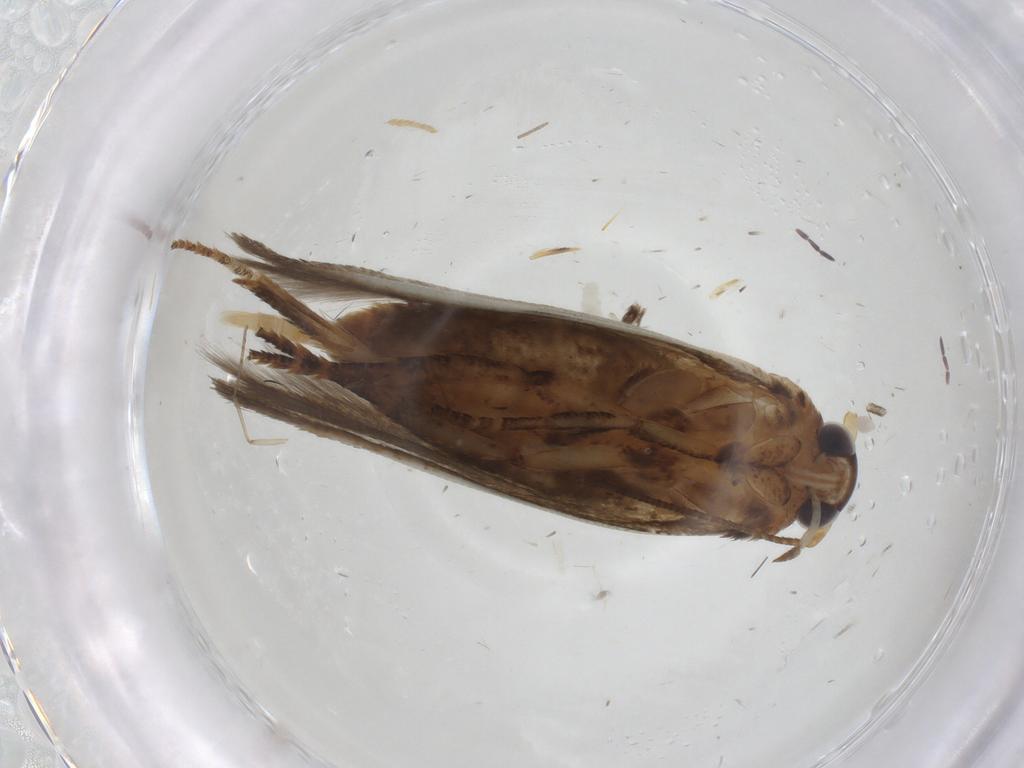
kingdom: Animalia
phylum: Arthropoda
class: Insecta
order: Lepidoptera
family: Blastobasidae
